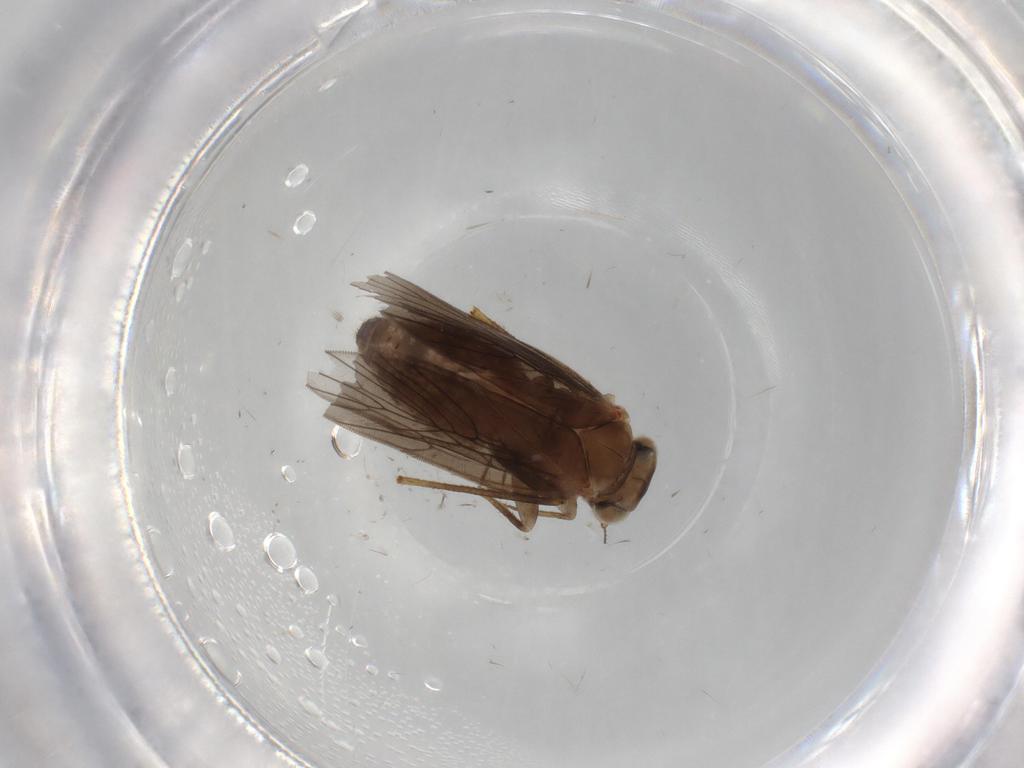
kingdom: Animalia
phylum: Arthropoda
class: Insecta
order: Psocodea
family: Lepidopsocidae
